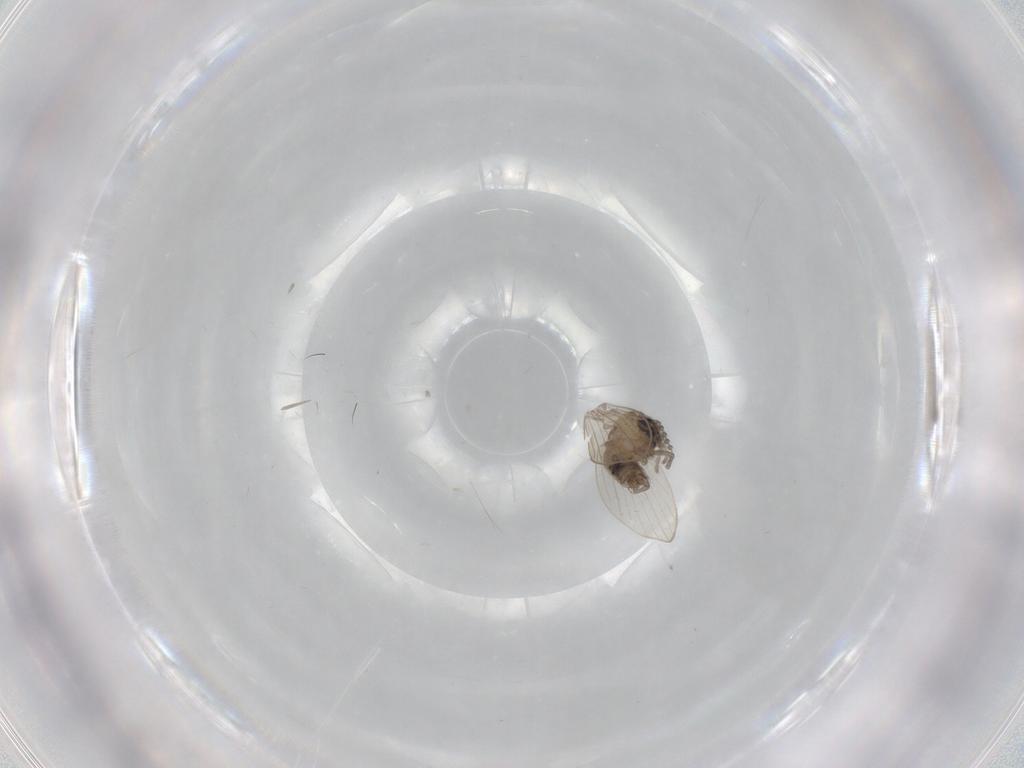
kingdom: Animalia
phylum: Arthropoda
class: Insecta
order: Diptera
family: Psychodidae
